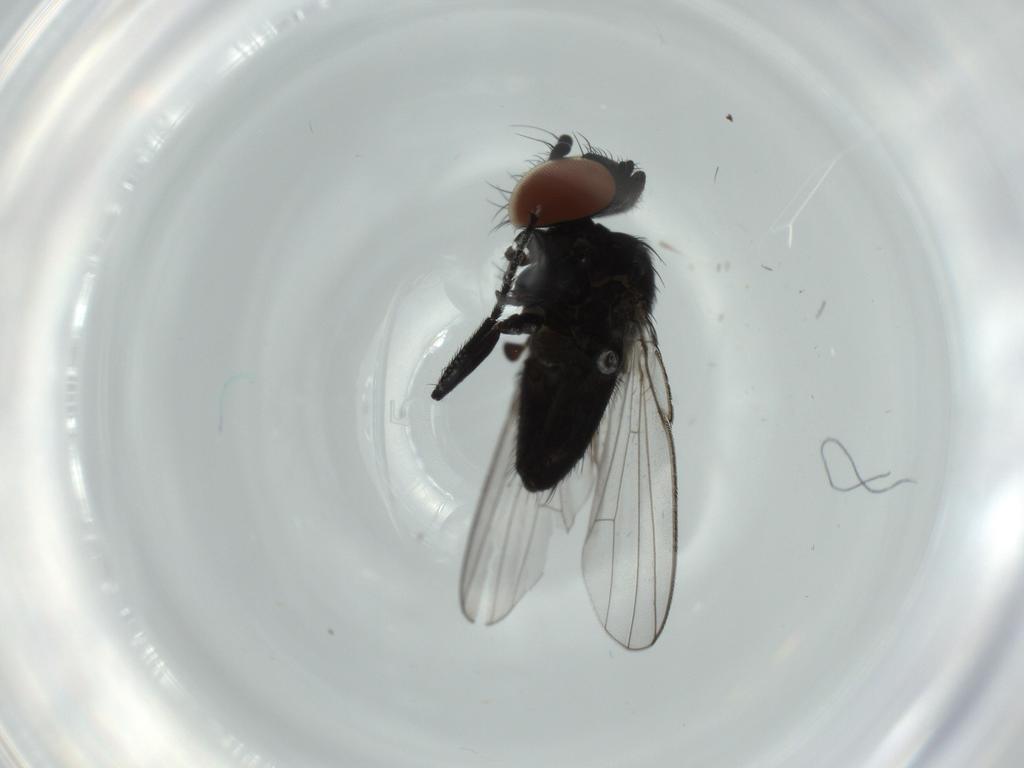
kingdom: Animalia
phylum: Arthropoda
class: Insecta
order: Diptera
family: Milichiidae
